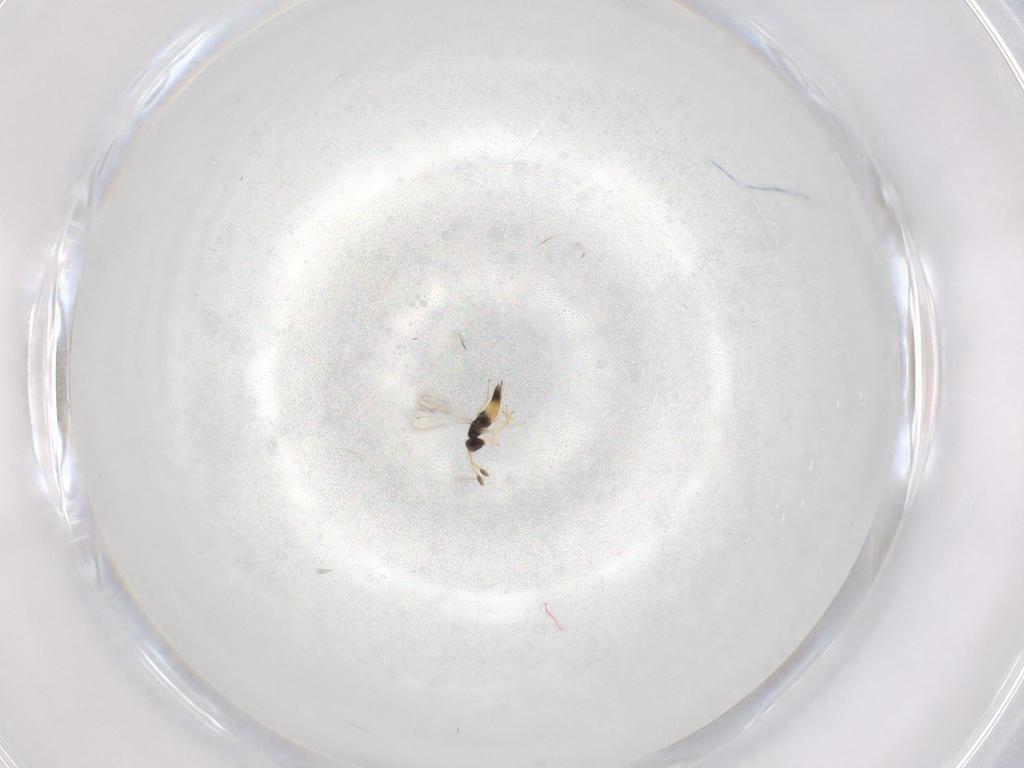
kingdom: Animalia
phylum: Arthropoda
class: Insecta
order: Hymenoptera
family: Mymaridae
